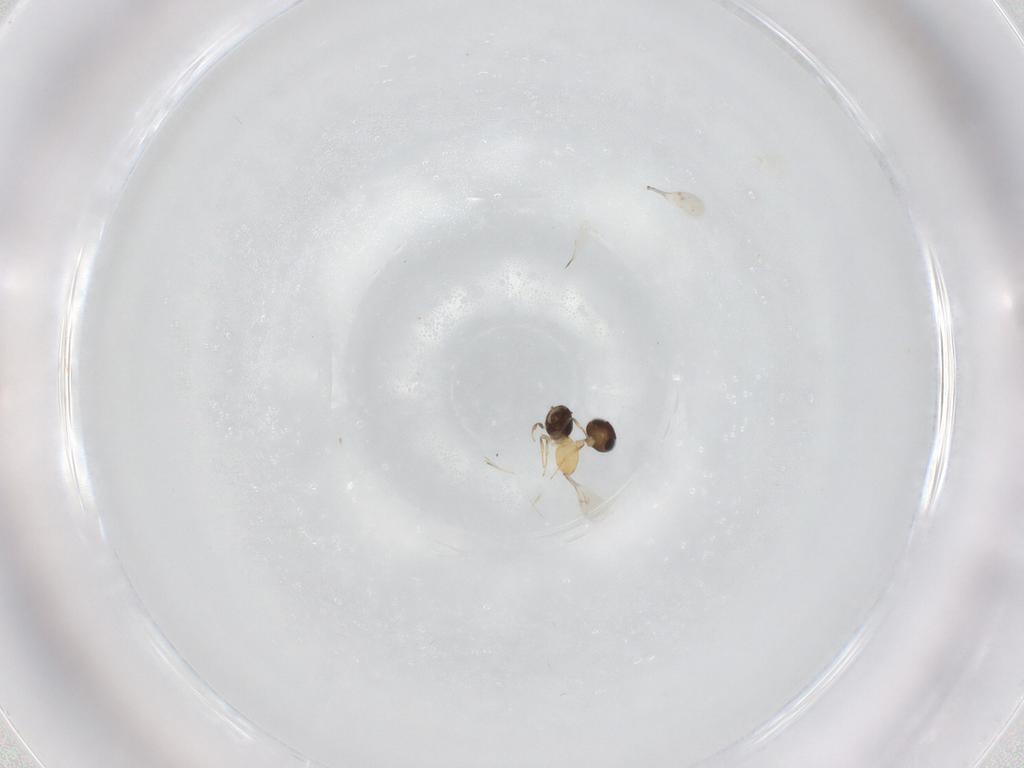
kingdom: Animalia
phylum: Arthropoda
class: Insecta
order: Hymenoptera
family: Scelionidae
